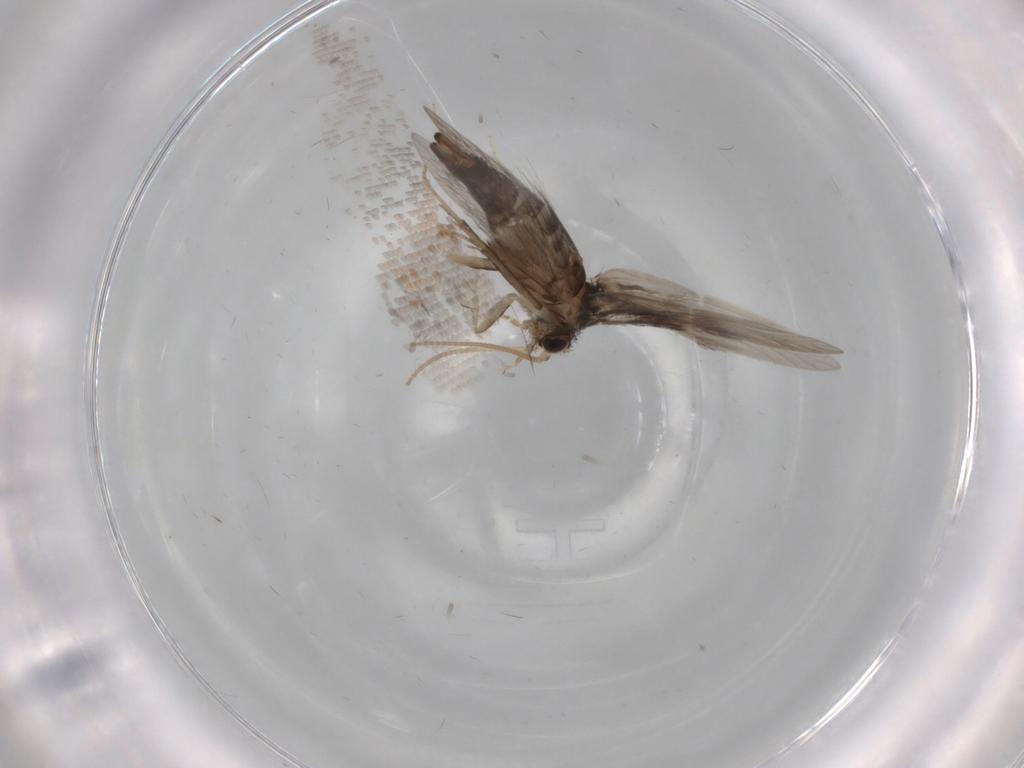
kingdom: Animalia
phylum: Arthropoda
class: Insecta
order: Trichoptera
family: Hydroptilidae
